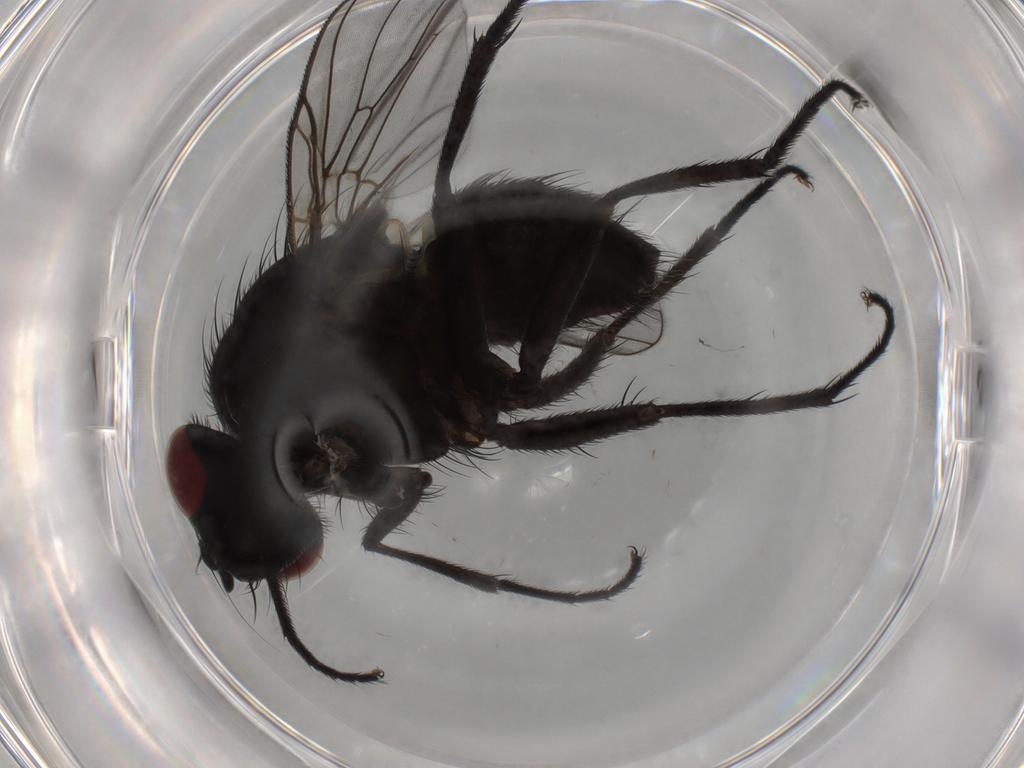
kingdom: Animalia
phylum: Arthropoda
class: Insecta
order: Diptera
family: Muscidae
